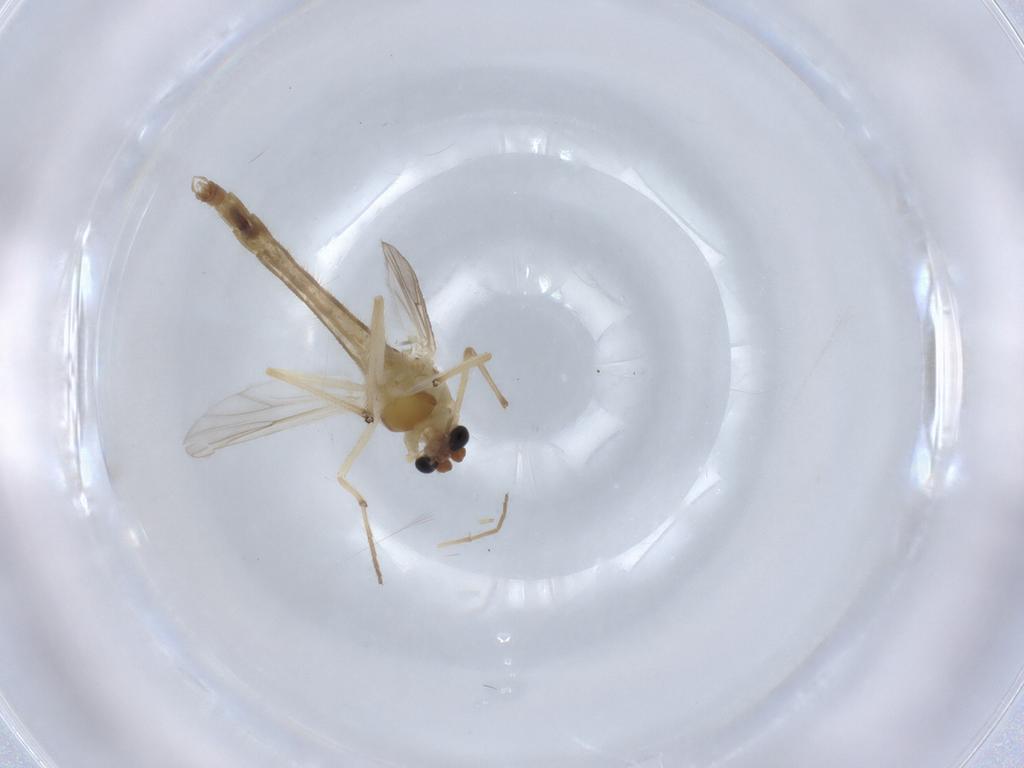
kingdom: Animalia
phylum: Arthropoda
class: Insecta
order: Diptera
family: Chironomidae
